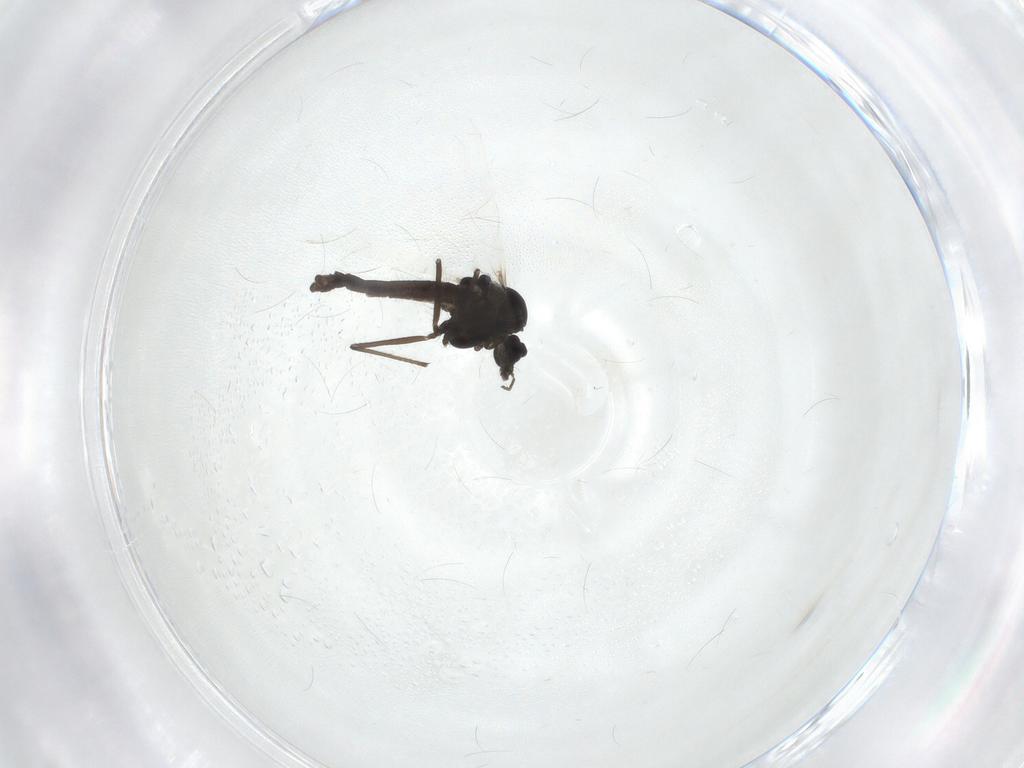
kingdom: Animalia
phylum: Arthropoda
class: Insecta
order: Diptera
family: Chironomidae
